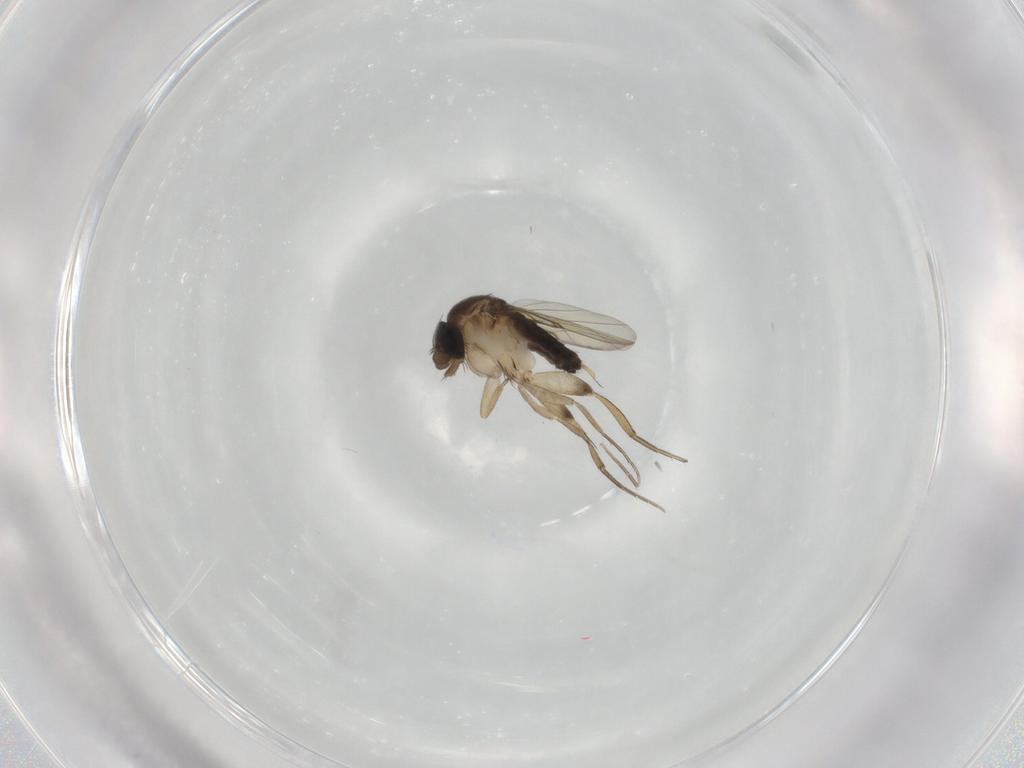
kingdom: Animalia
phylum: Arthropoda
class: Insecta
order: Diptera
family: Phoridae
